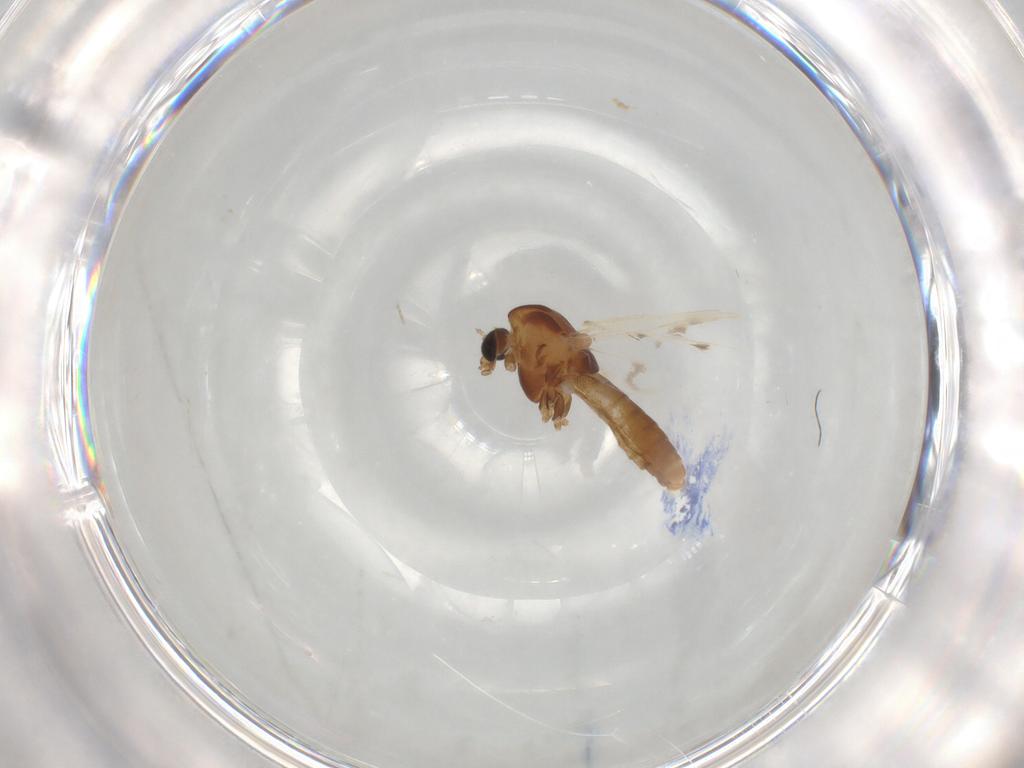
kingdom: Animalia
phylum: Arthropoda
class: Insecta
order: Diptera
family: Chironomidae
